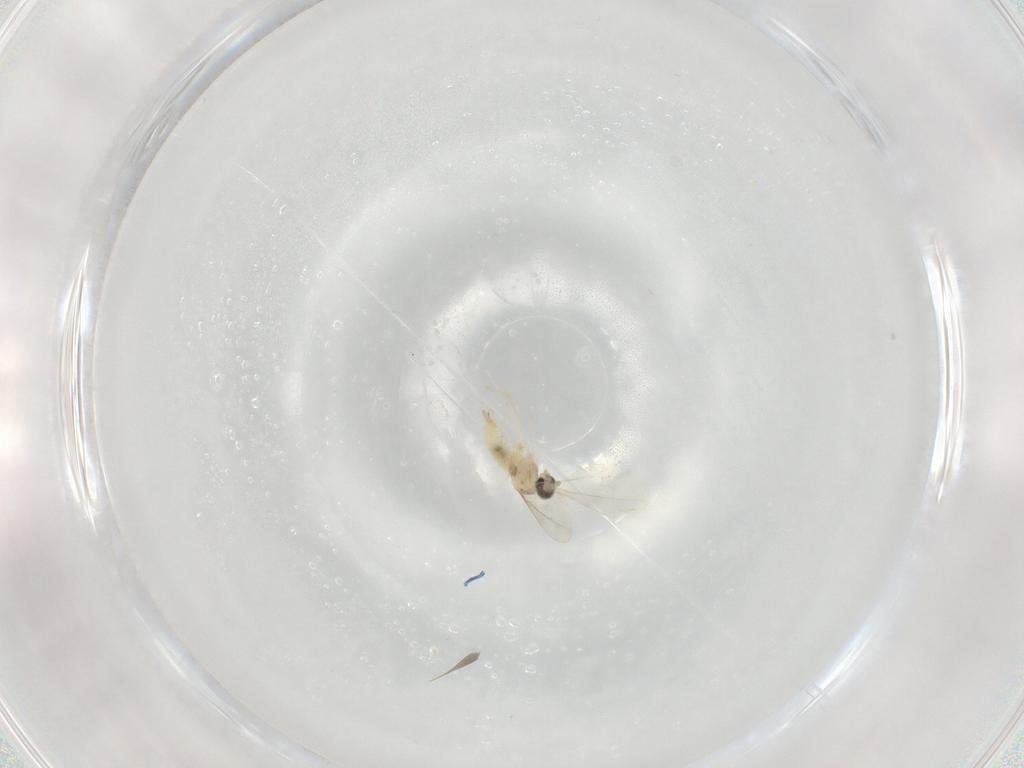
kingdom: Animalia
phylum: Arthropoda
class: Insecta
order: Diptera
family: Cecidomyiidae
